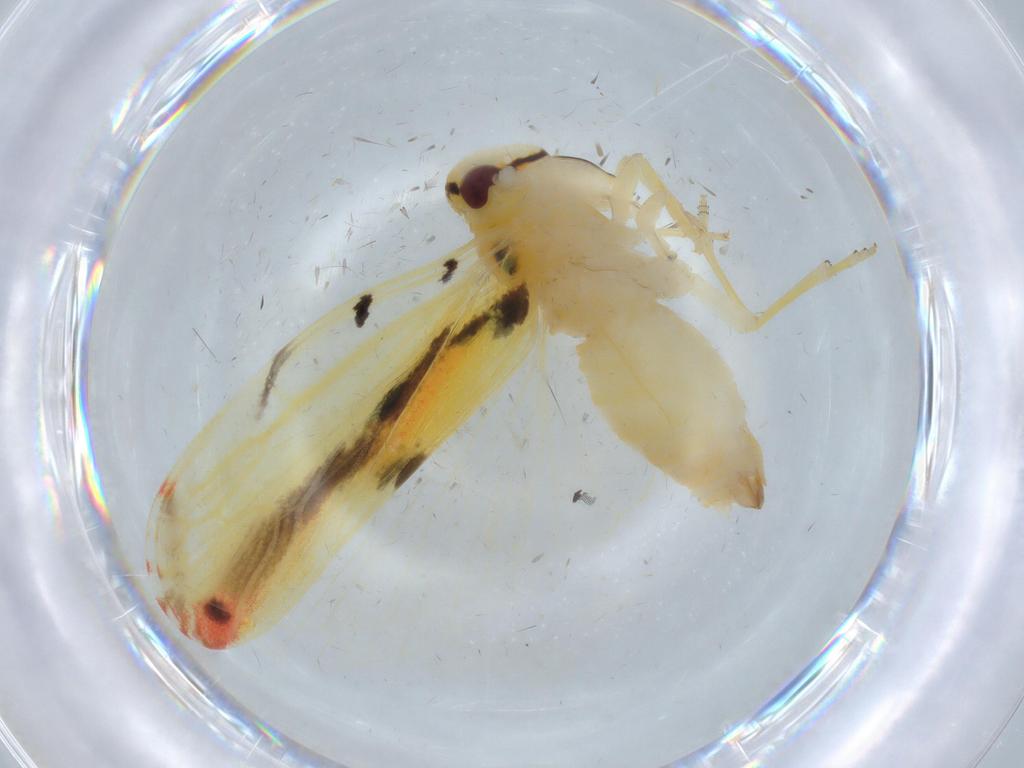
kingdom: Animalia
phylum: Arthropoda
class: Insecta
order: Hemiptera
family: Derbidae
